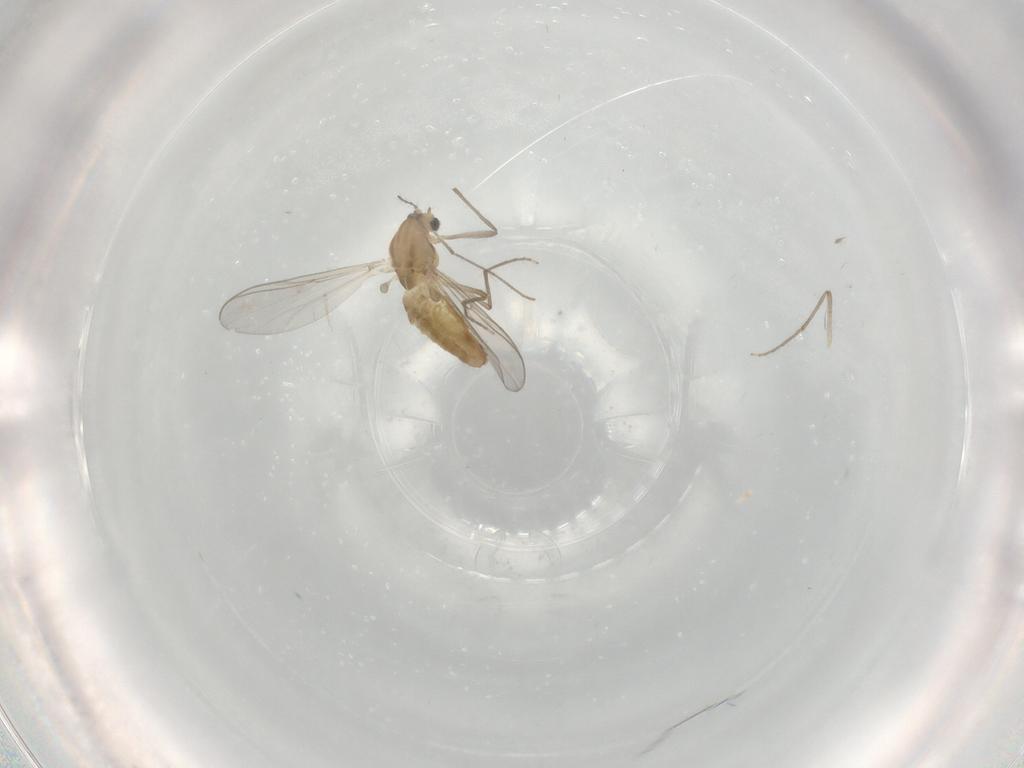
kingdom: Animalia
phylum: Arthropoda
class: Insecta
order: Diptera
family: Chironomidae
